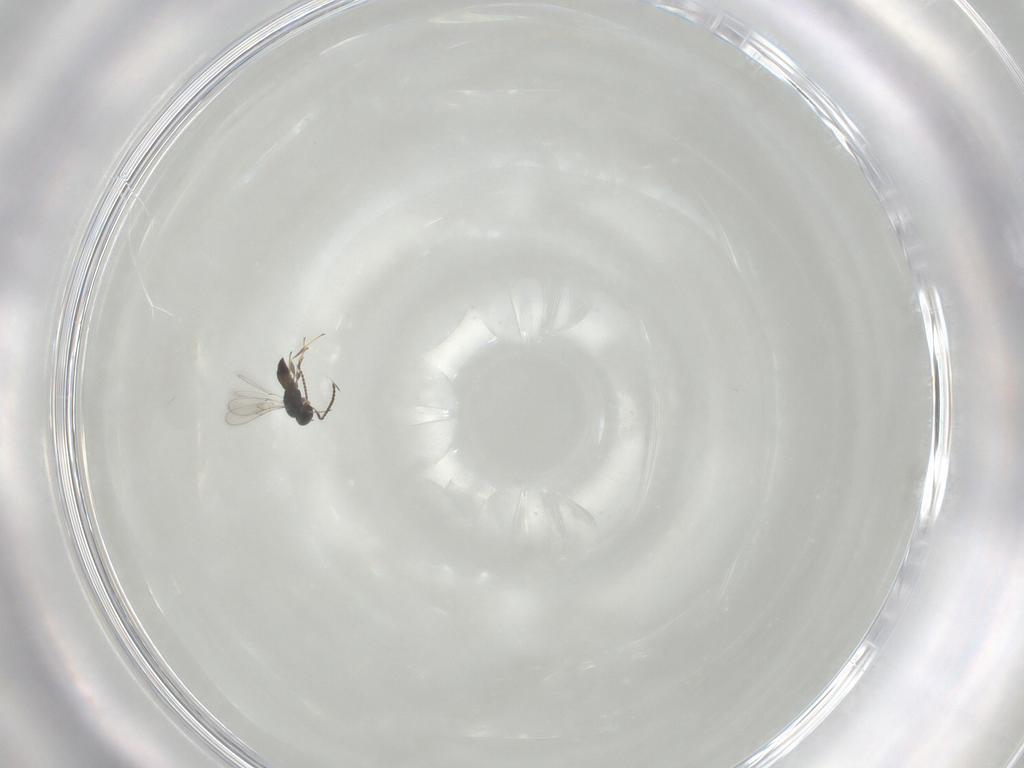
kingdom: Animalia
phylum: Arthropoda
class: Insecta
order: Hymenoptera
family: Scelionidae
